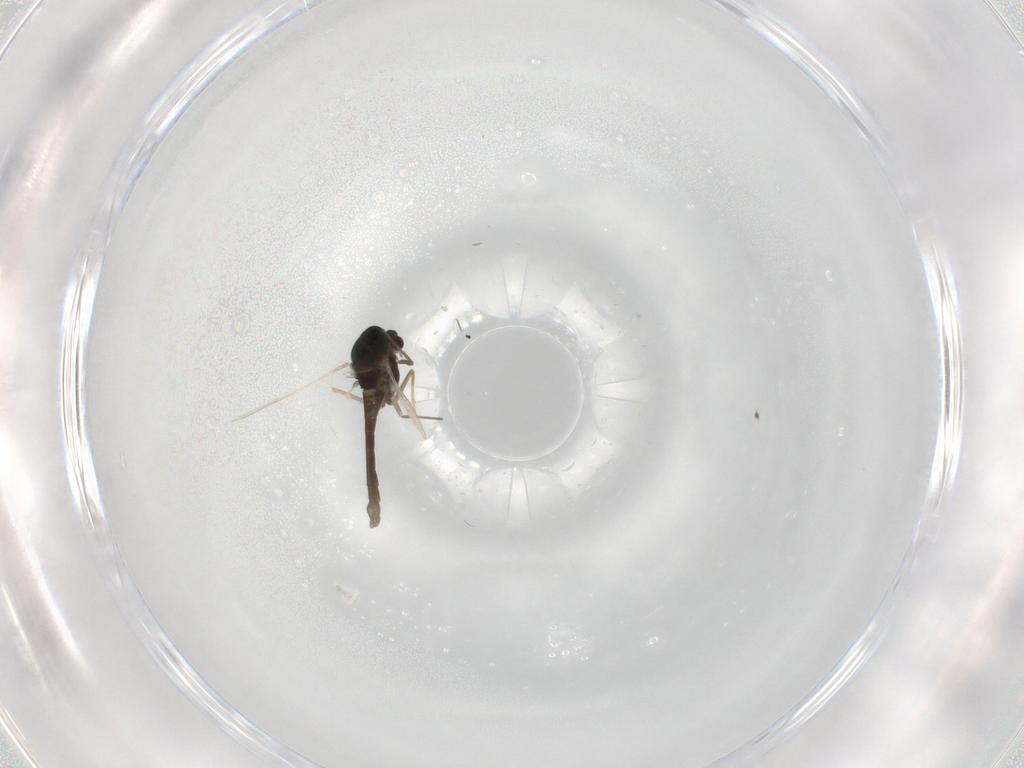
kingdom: Animalia
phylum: Arthropoda
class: Insecta
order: Diptera
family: Chironomidae
